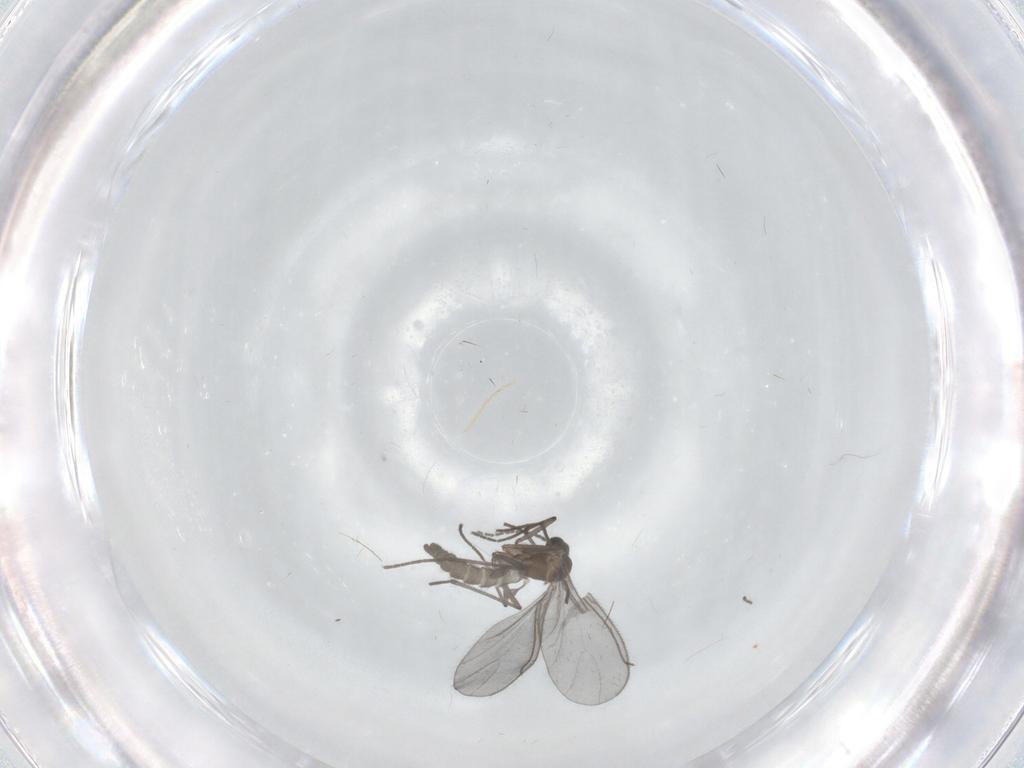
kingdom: Animalia
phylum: Arthropoda
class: Insecta
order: Diptera
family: Sciaridae
